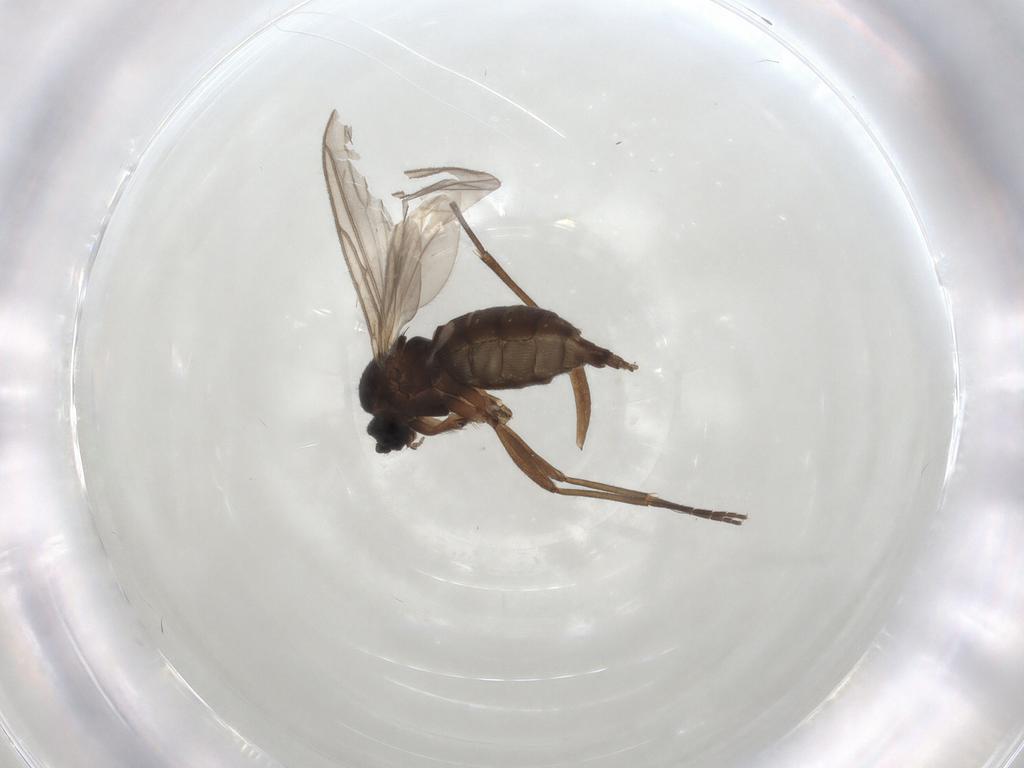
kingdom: Animalia
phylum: Arthropoda
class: Insecta
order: Diptera
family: Sciaridae
